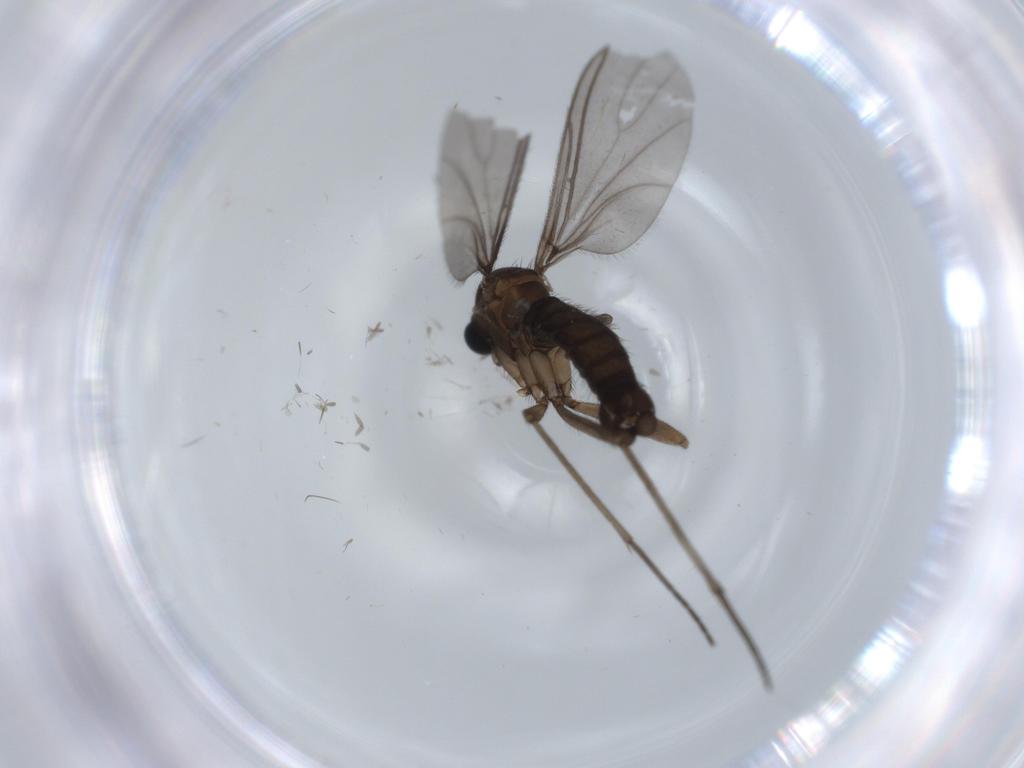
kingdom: Animalia
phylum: Arthropoda
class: Insecta
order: Diptera
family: Sciaridae
